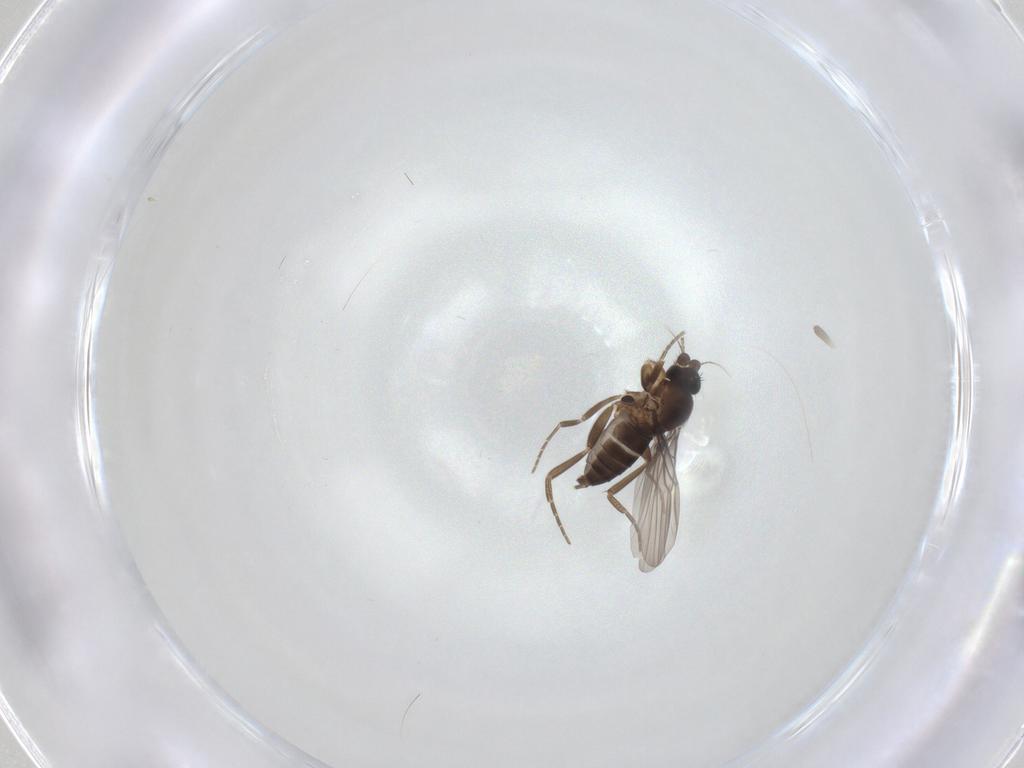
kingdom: Animalia
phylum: Arthropoda
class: Insecta
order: Diptera
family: Phoridae
